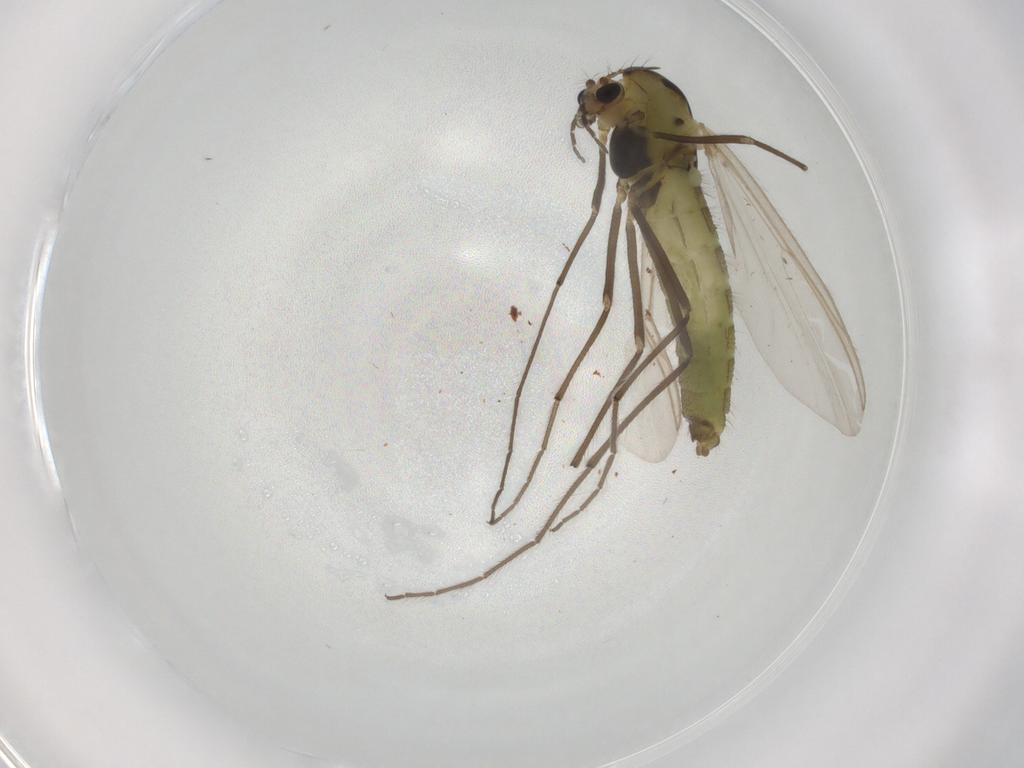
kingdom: Animalia
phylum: Arthropoda
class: Insecta
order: Diptera
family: Chironomidae
